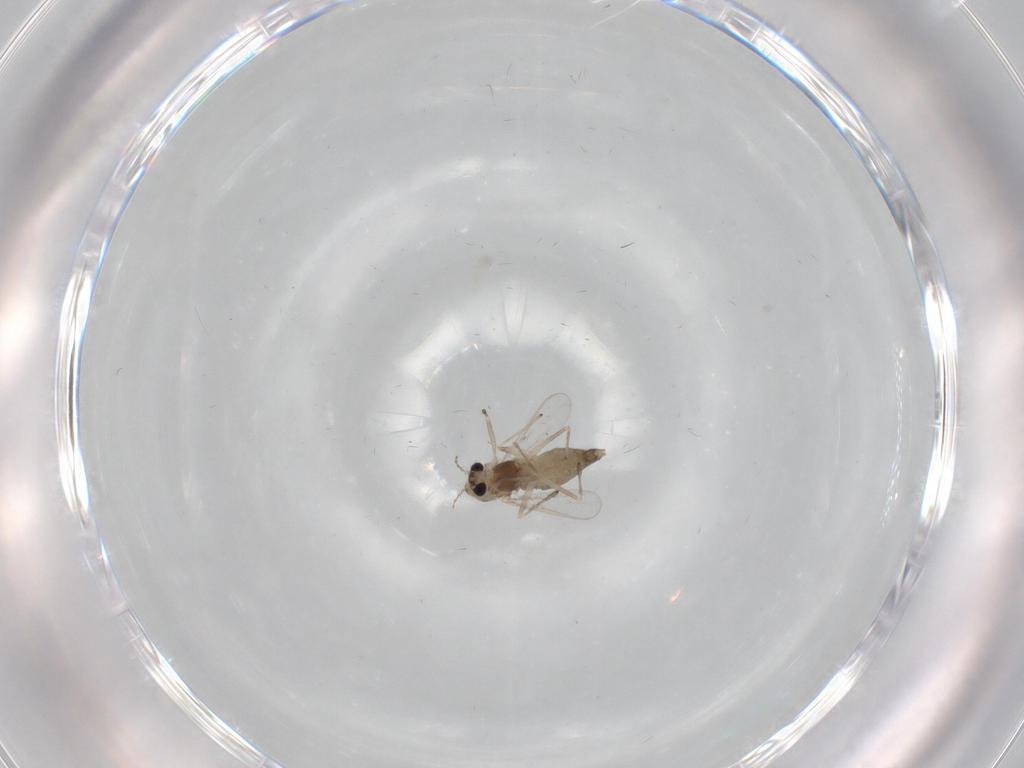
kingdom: Animalia
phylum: Arthropoda
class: Insecta
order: Diptera
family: Chironomidae
